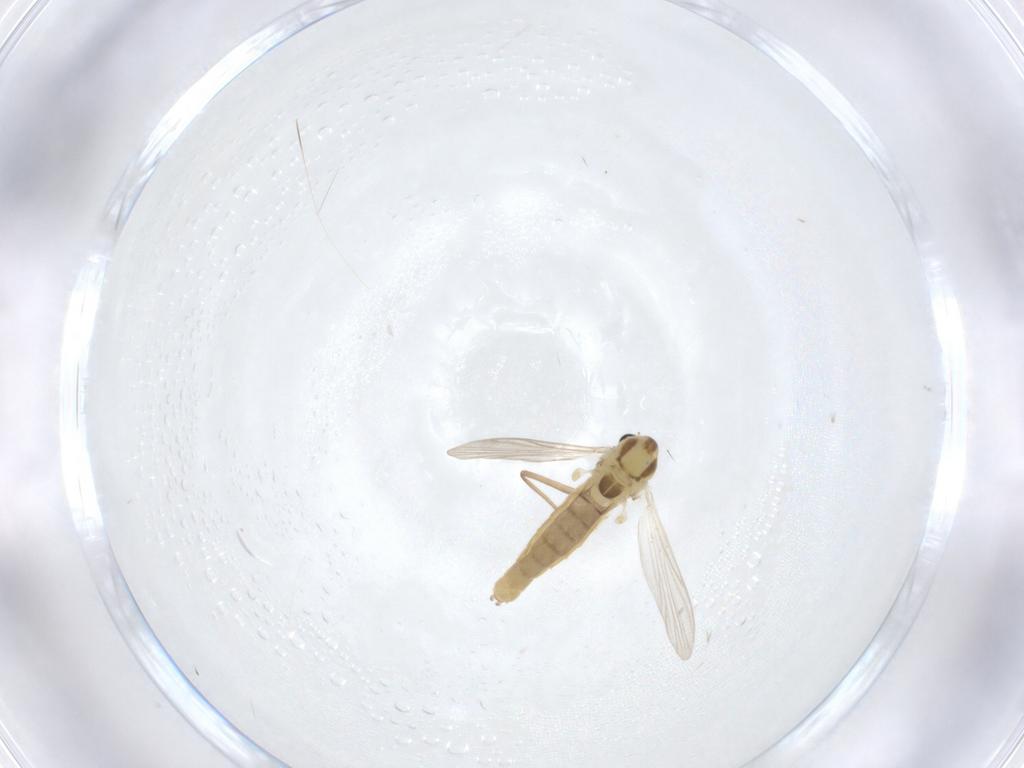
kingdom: Animalia
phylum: Arthropoda
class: Insecta
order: Diptera
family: Chironomidae
